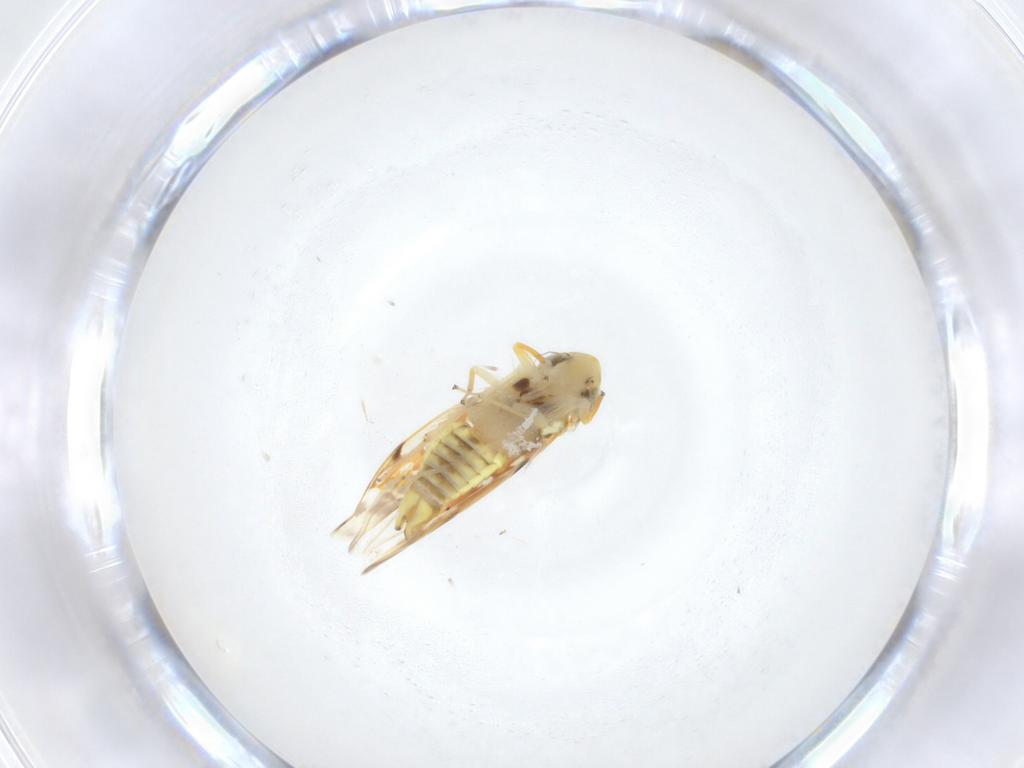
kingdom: Animalia
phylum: Arthropoda
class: Insecta
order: Hemiptera
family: Cicadellidae
